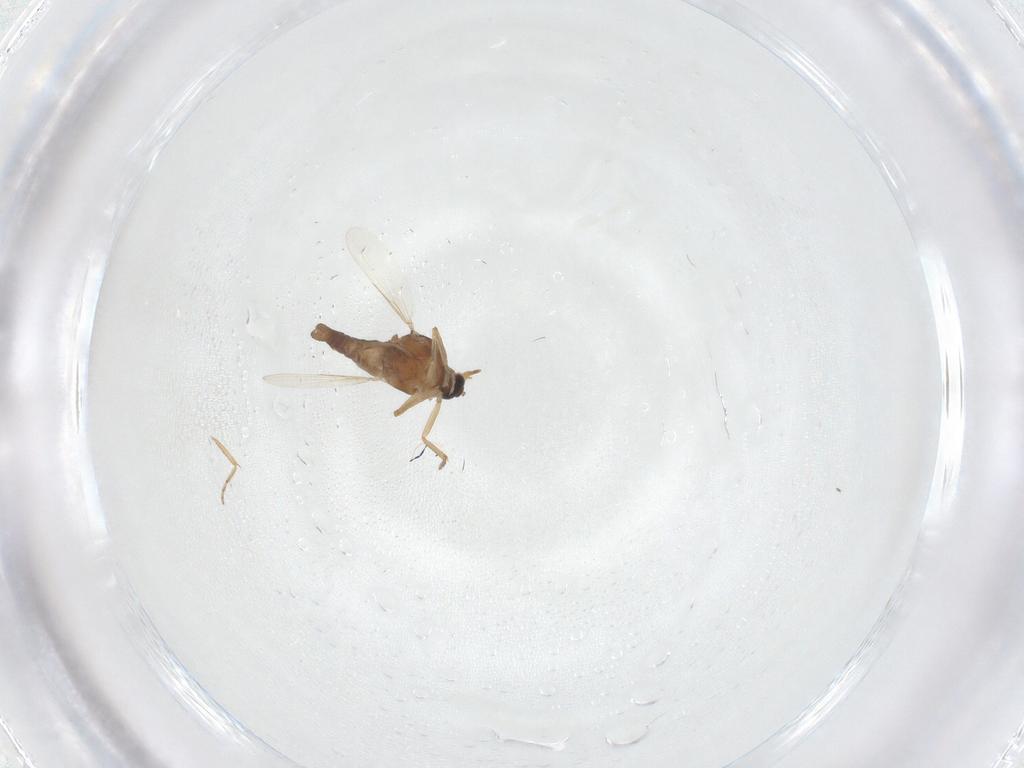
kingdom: Animalia
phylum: Arthropoda
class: Insecta
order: Diptera
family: Ceratopogonidae
